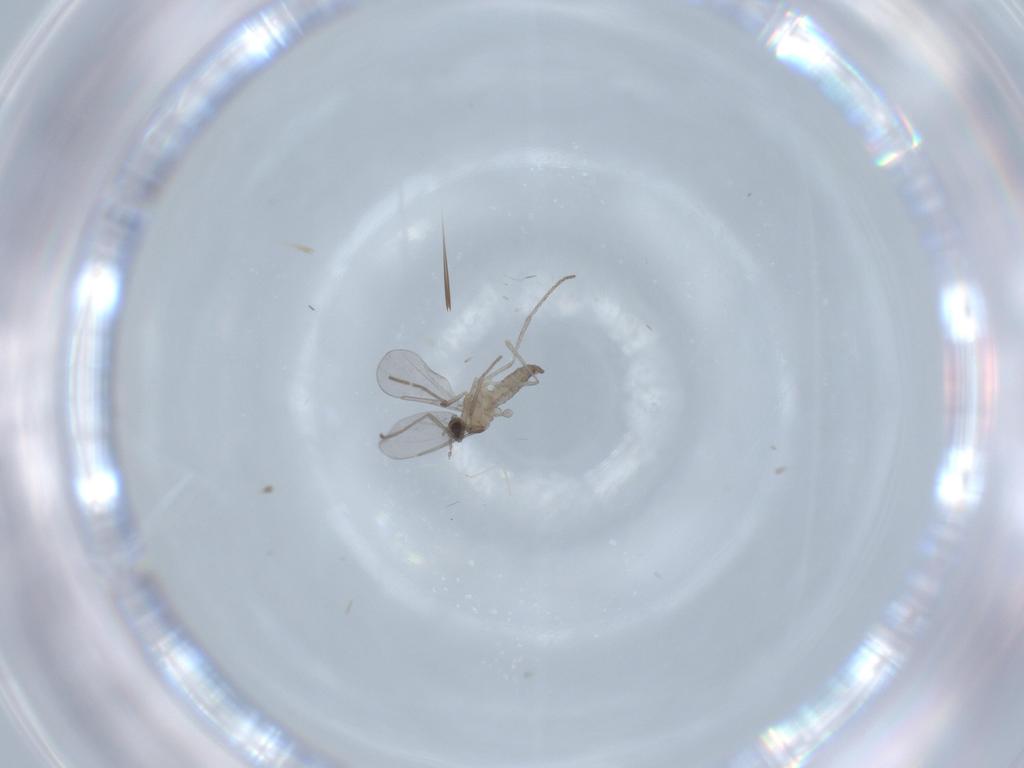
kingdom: Animalia
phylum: Arthropoda
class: Insecta
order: Diptera
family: Cecidomyiidae
